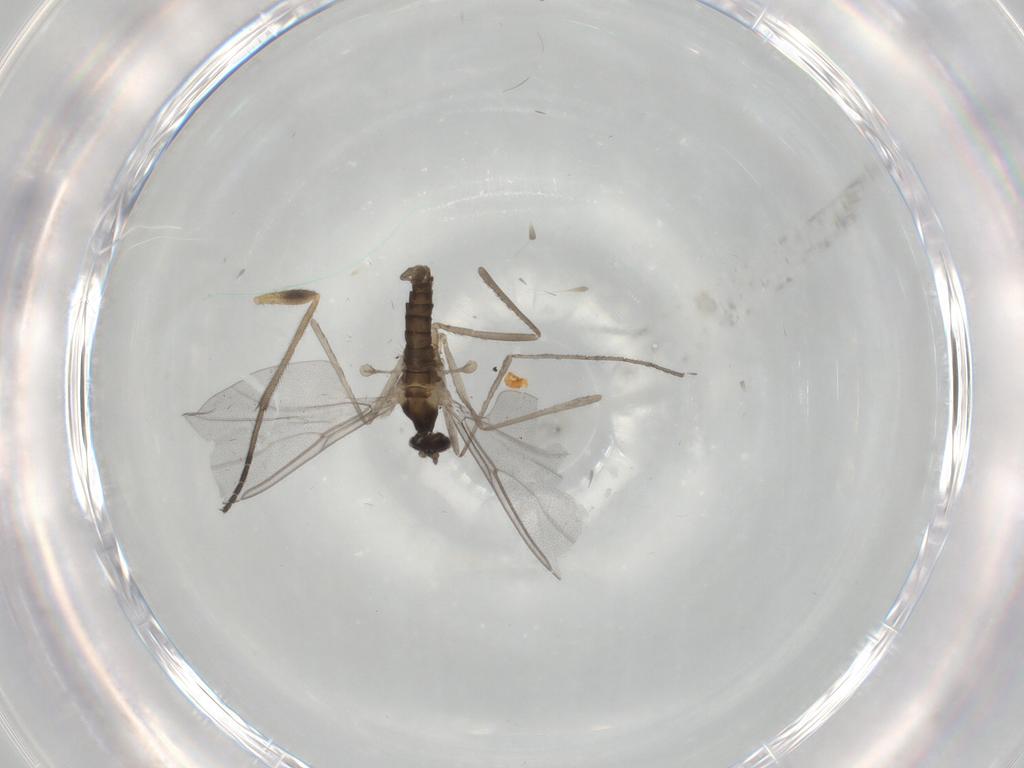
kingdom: Animalia
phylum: Arthropoda
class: Insecta
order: Diptera
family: Cecidomyiidae
